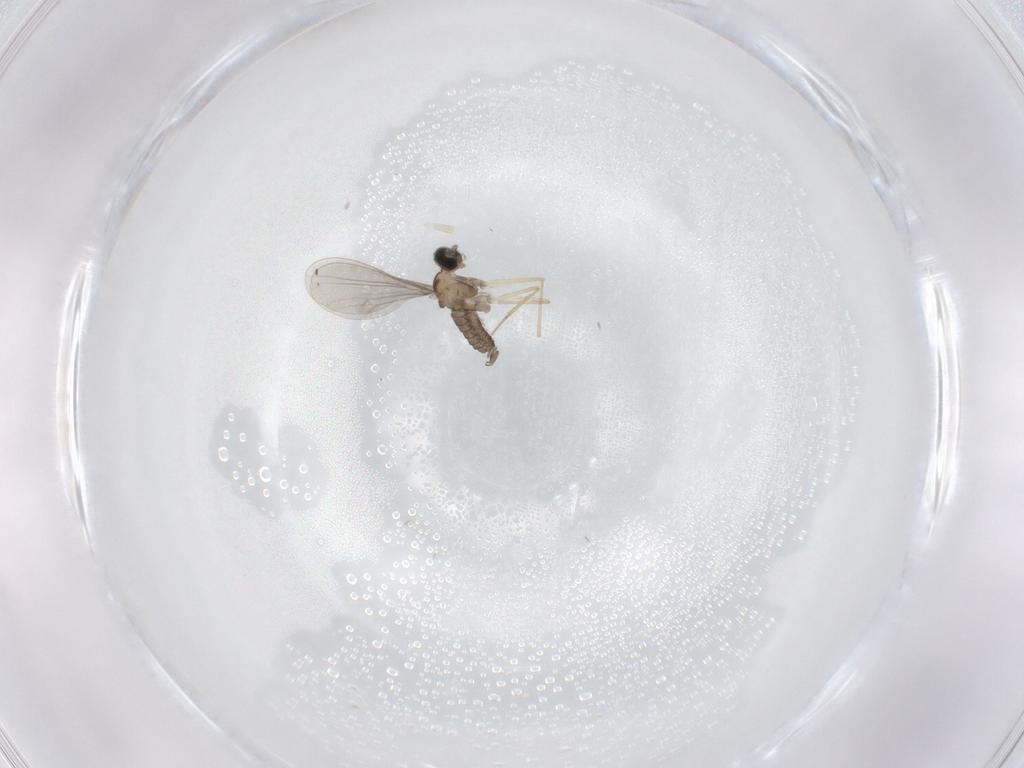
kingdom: Animalia
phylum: Arthropoda
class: Insecta
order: Diptera
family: Cecidomyiidae
